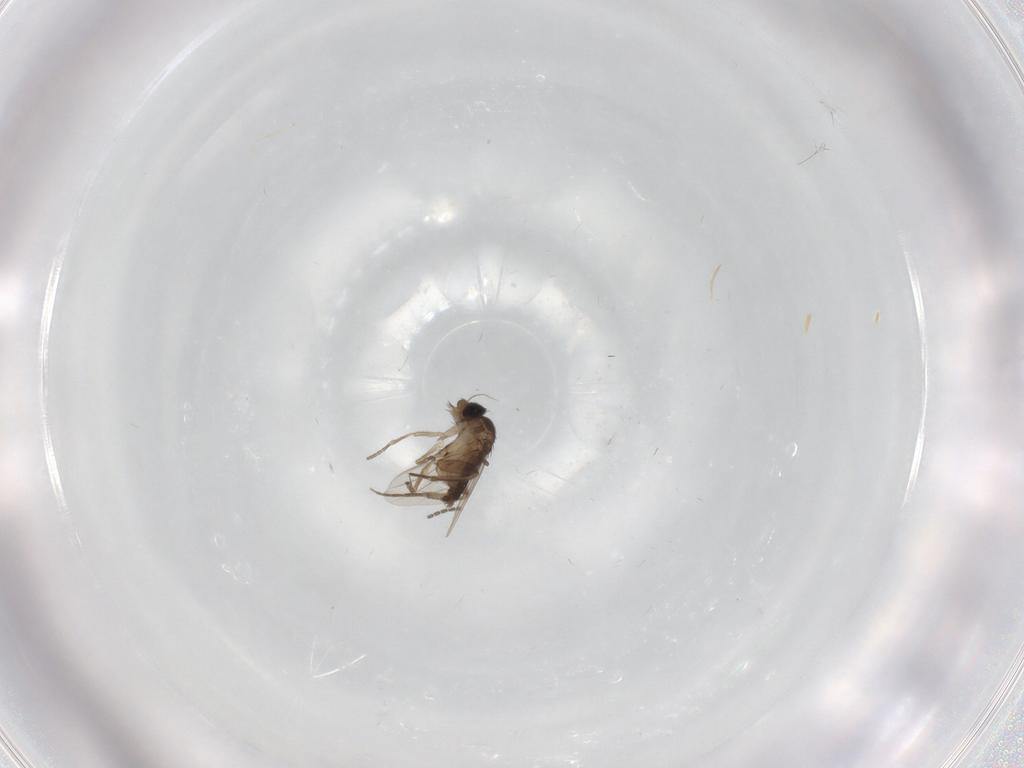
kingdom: Animalia
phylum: Arthropoda
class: Insecta
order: Diptera
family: Phoridae
